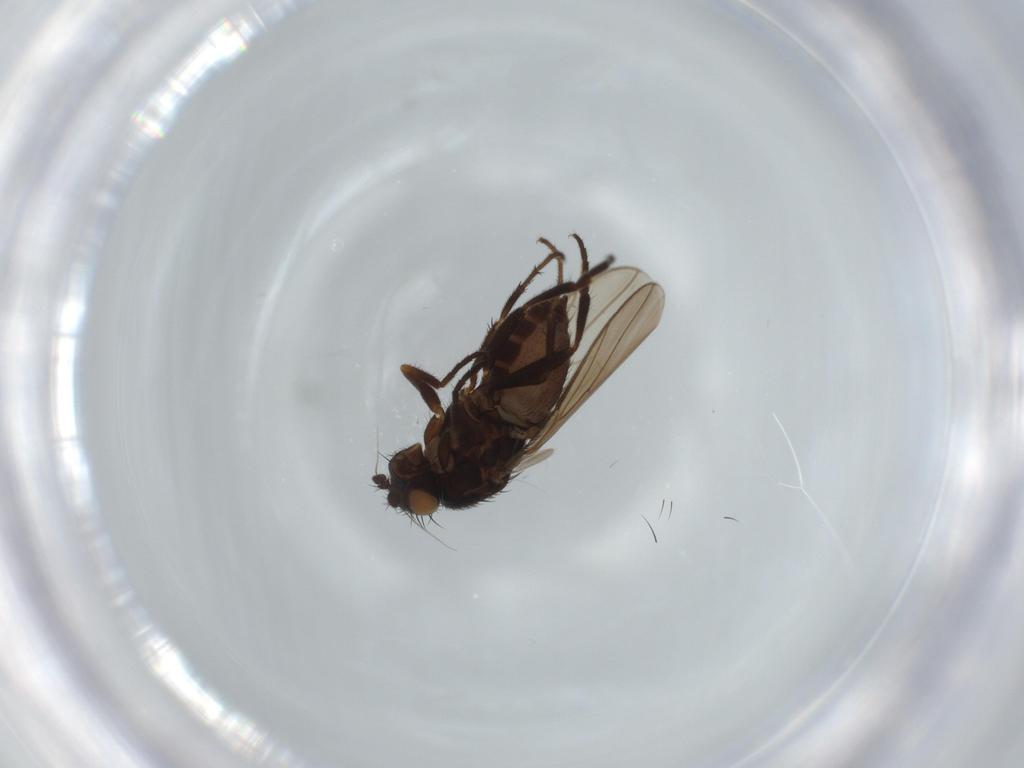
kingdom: Animalia
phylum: Arthropoda
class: Insecta
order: Diptera
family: Sphaeroceridae
